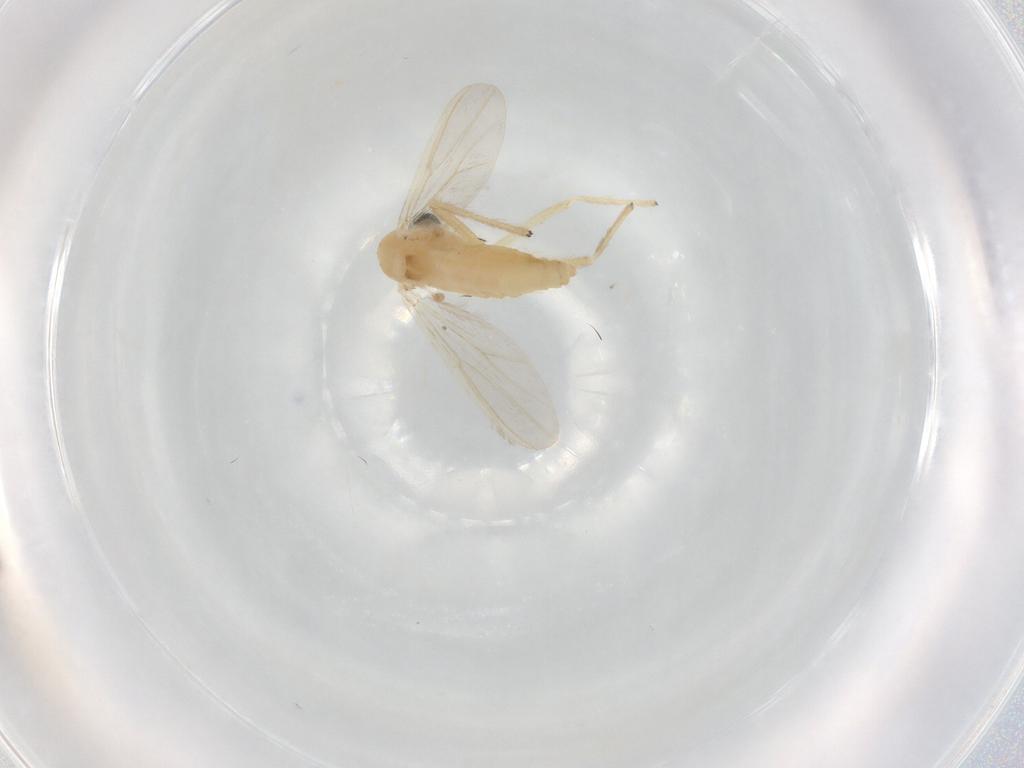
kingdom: Animalia
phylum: Arthropoda
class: Insecta
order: Diptera
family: Chironomidae
